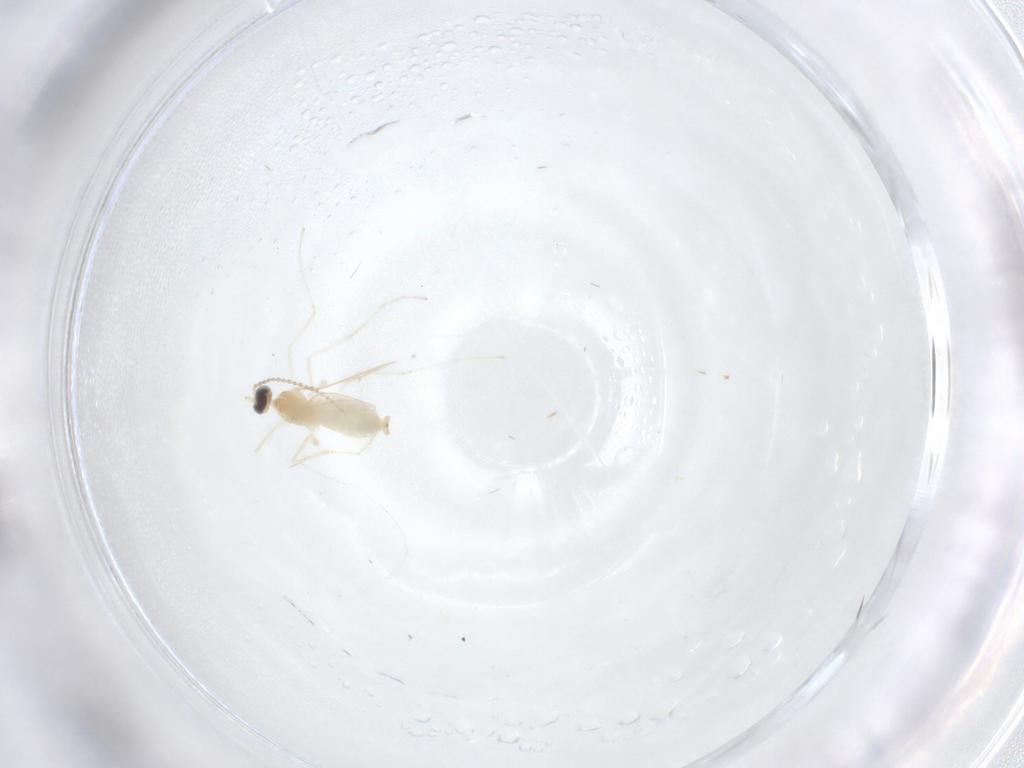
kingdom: Animalia
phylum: Arthropoda
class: Insecta
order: Diptera
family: Cecidomyiidae
